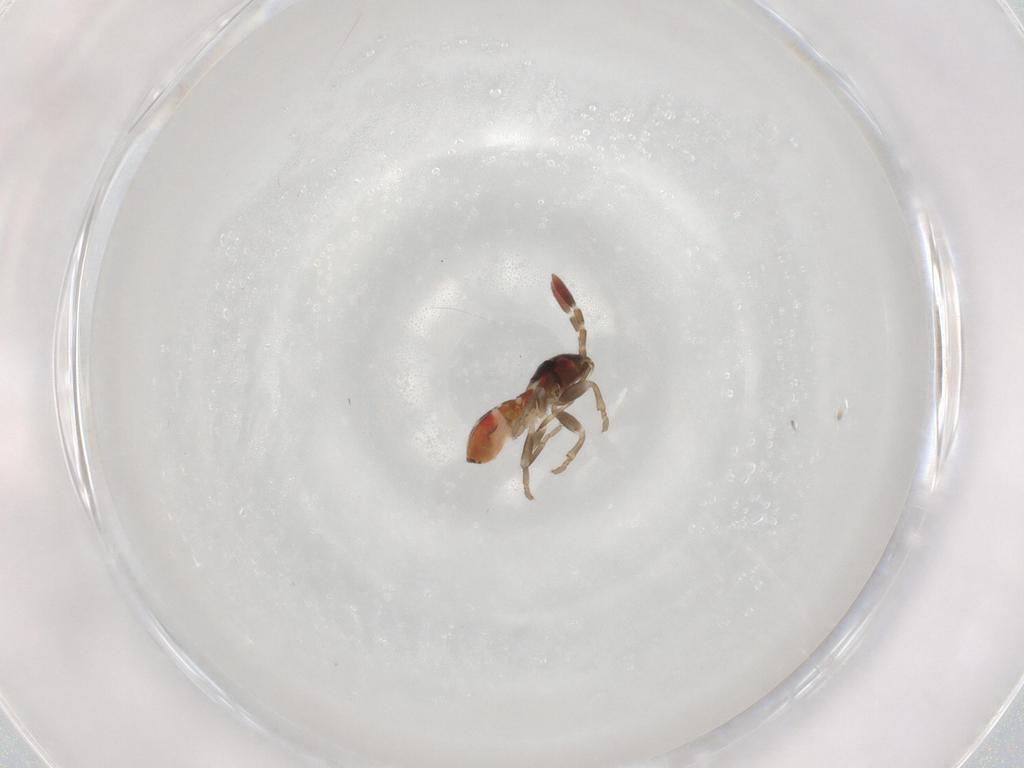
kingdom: Animalia
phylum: Arthropoda
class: Insecta
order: Hemiptera
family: Rhyparochromidae
